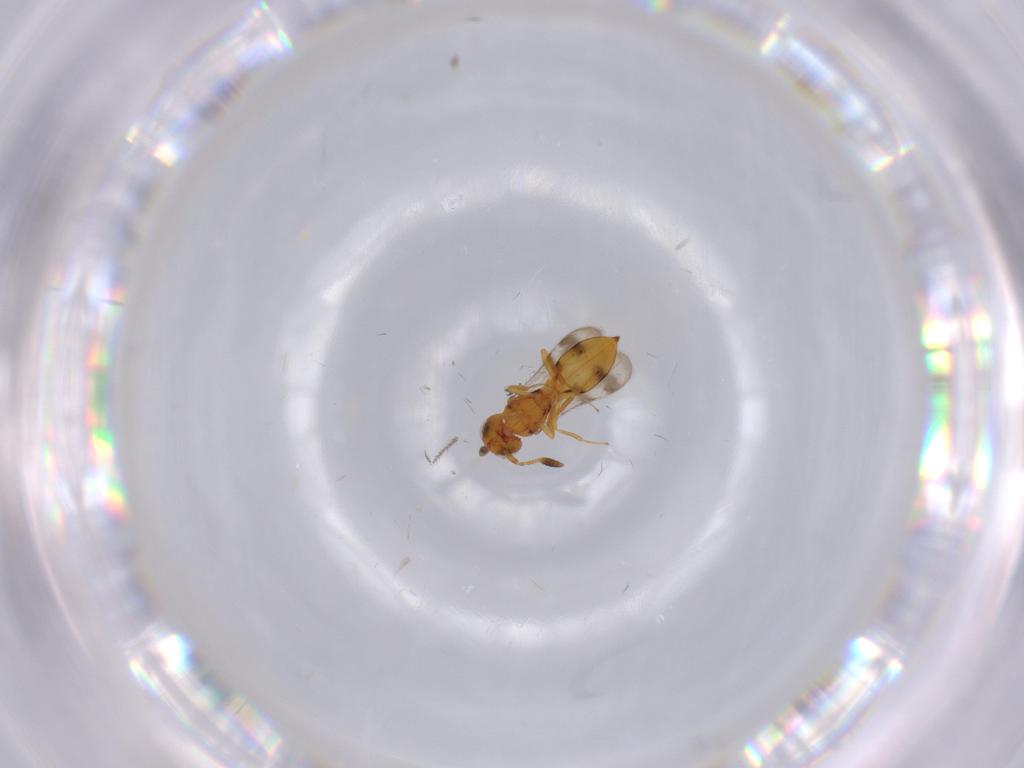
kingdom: Animalia
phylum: Arthropoda
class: Insecta
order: Hymenoptera
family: Scelionidae
